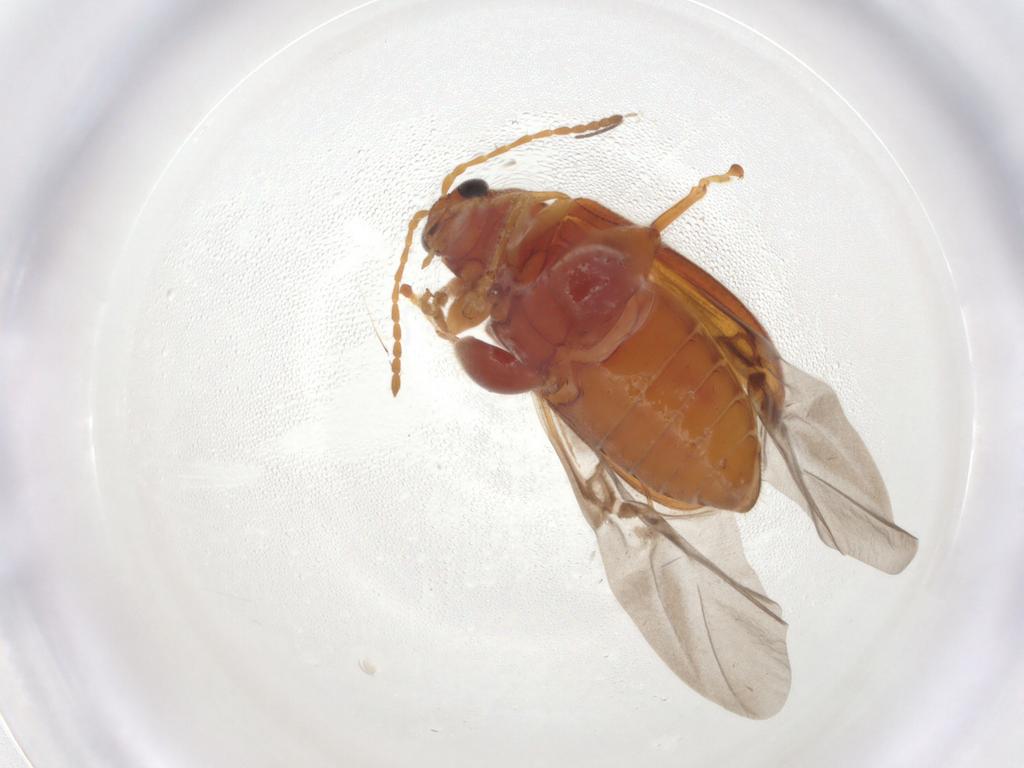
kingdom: Animalia
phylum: Arthropoda
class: Insecta
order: Coleoptera
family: Chrysomelidae
